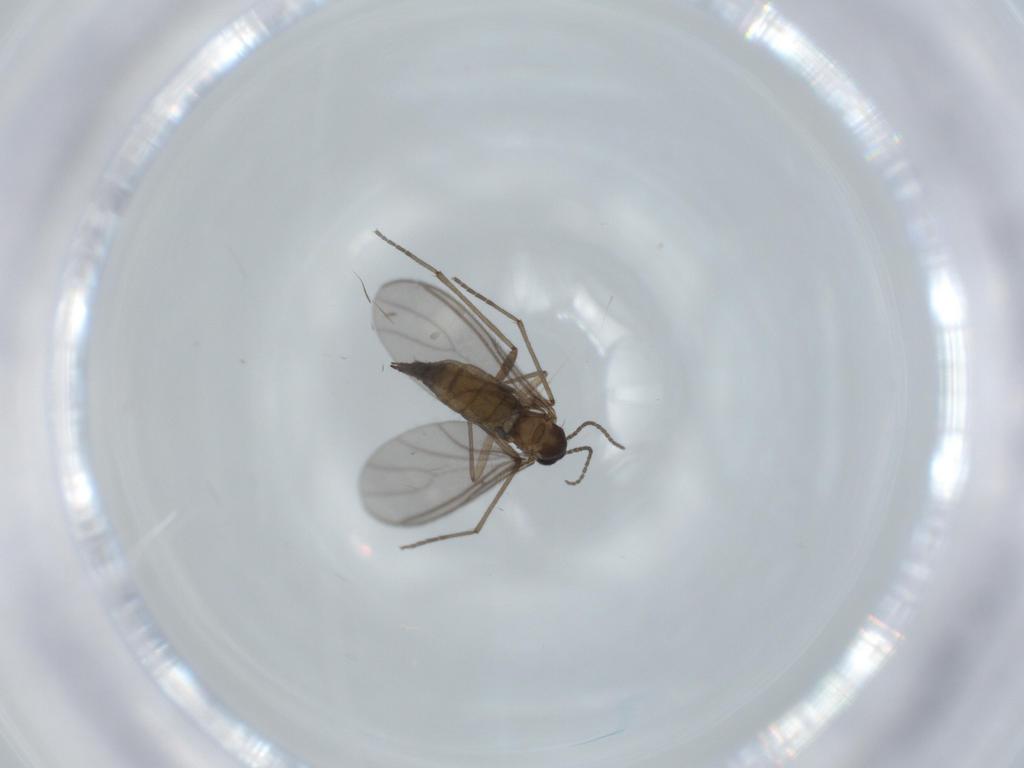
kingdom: Animalia
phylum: Arthropoda
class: Insecta
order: Diptera
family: Sciaridae
